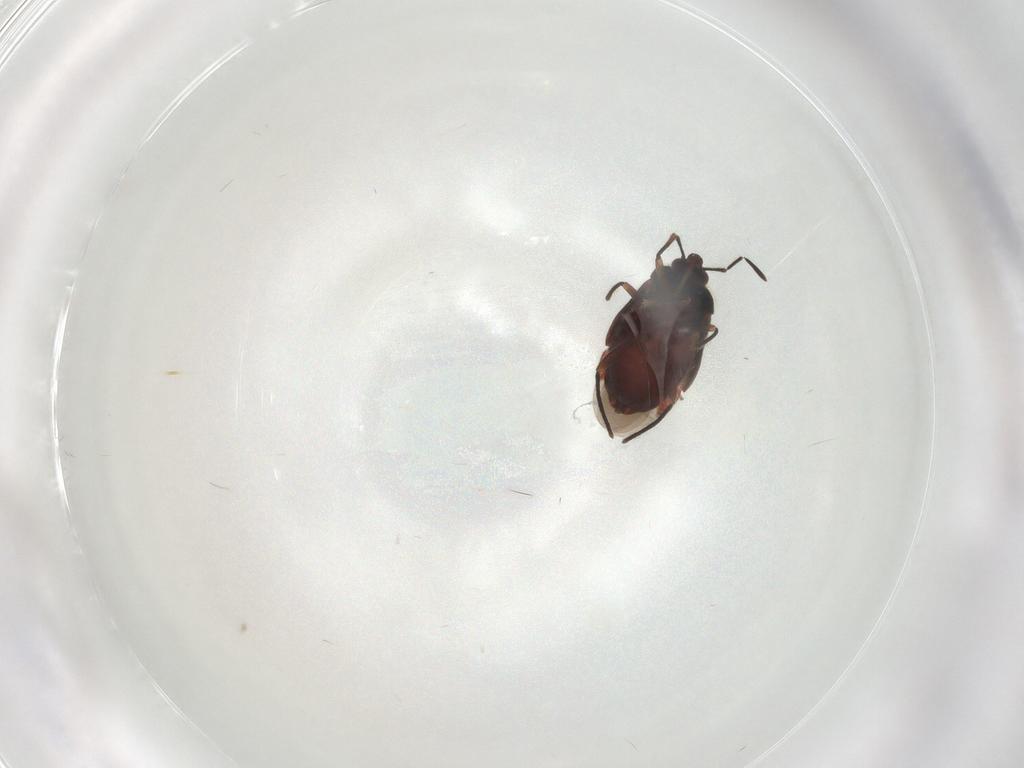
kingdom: Animalia
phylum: Arthropoda
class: Insecta
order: Hemiptera
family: Microphysidae
